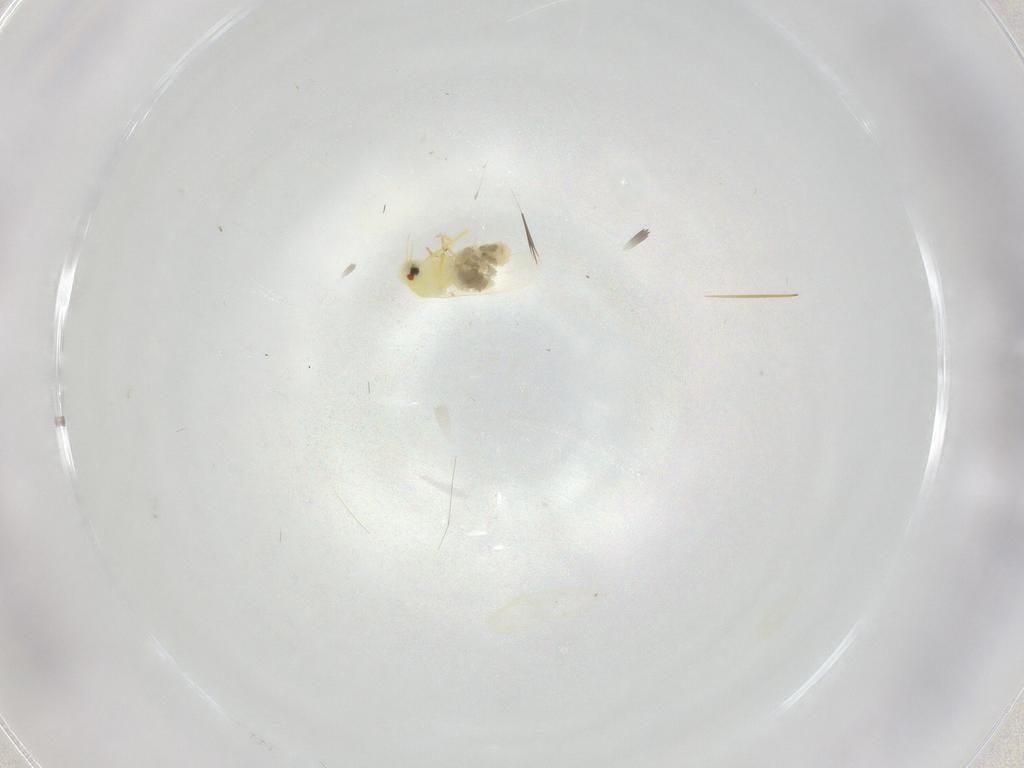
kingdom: Animalia
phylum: Arthropoda
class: Insecta
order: Hemiptera
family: Aleyrodidae
